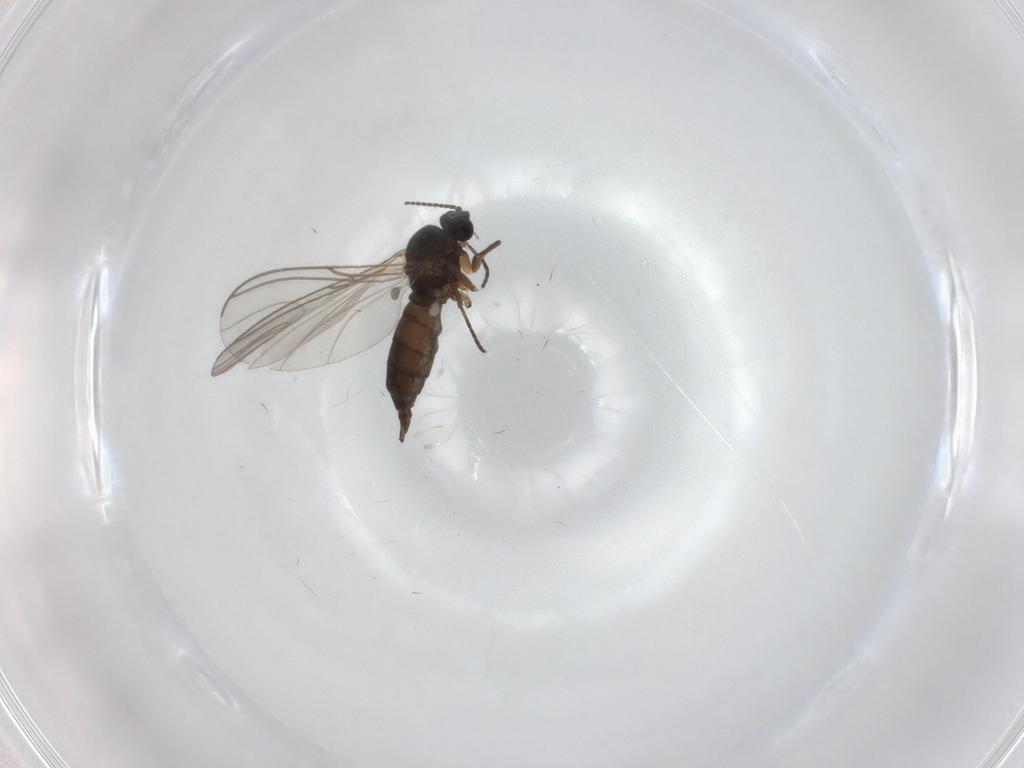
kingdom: Animalia
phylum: Arthropoda
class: Insecta
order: Diptera
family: Sciaridae
